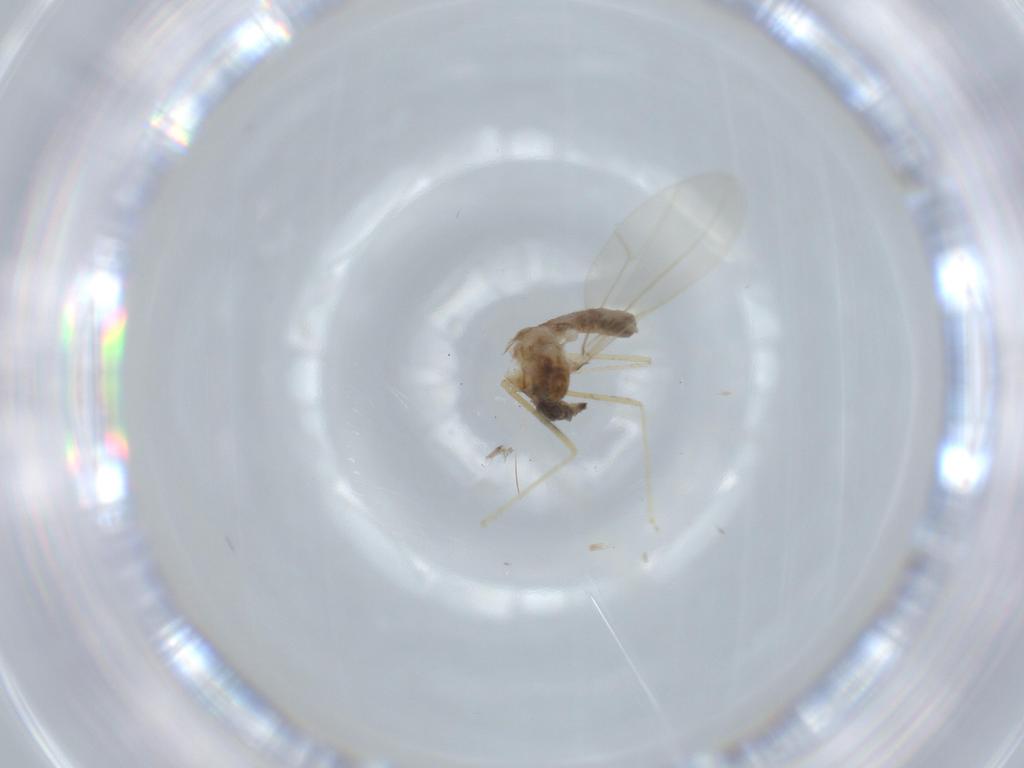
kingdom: Animalia
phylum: Arthropoda
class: Insecta
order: Diptera
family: Cecidomyiidae
